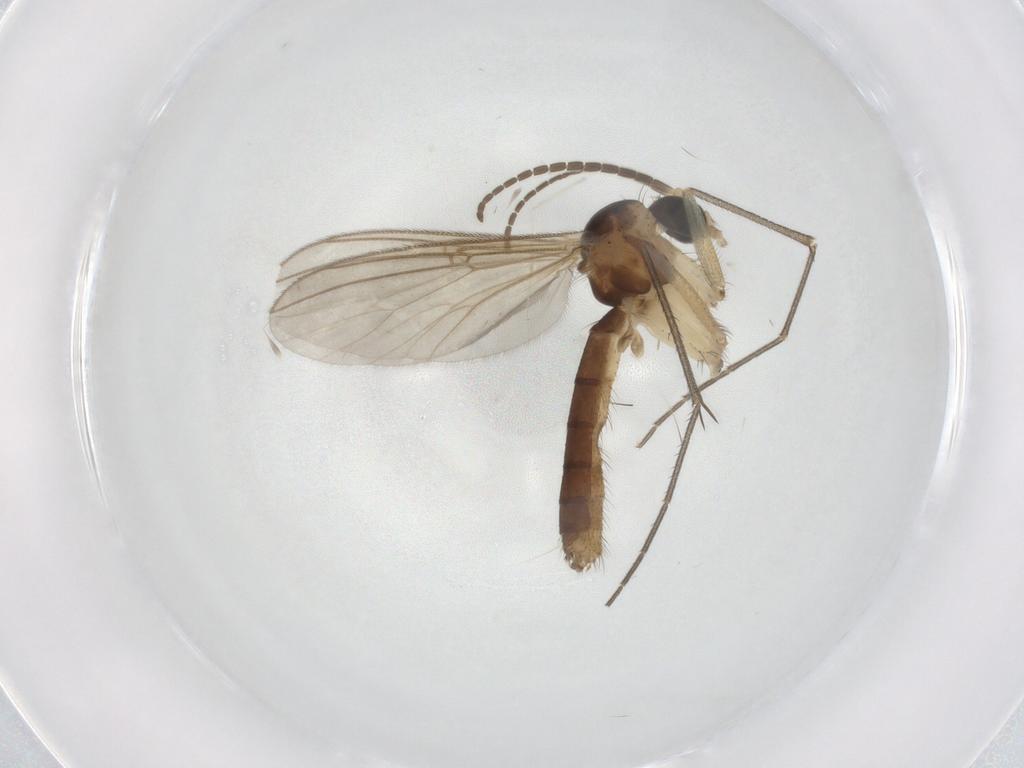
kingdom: Animalia
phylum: Arthropoda
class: Insecta
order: Diptera
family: Mycetophilidae
